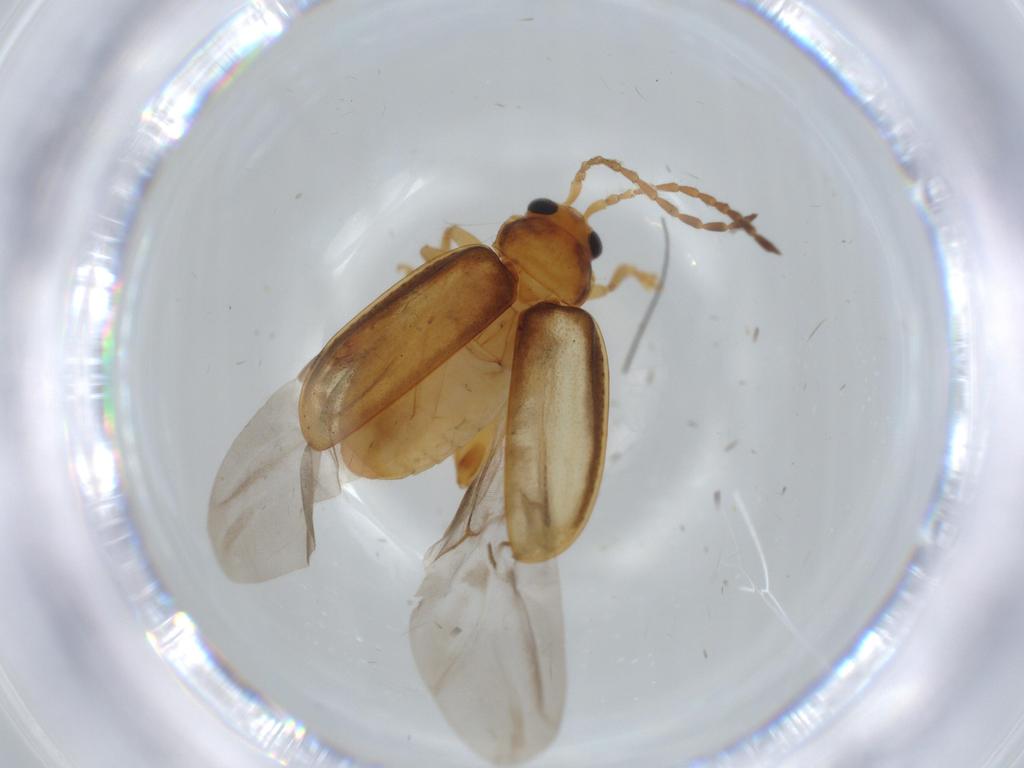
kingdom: Animalia
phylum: Arthropoda
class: Insecta
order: Coleoptera
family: Chrysomelidae
